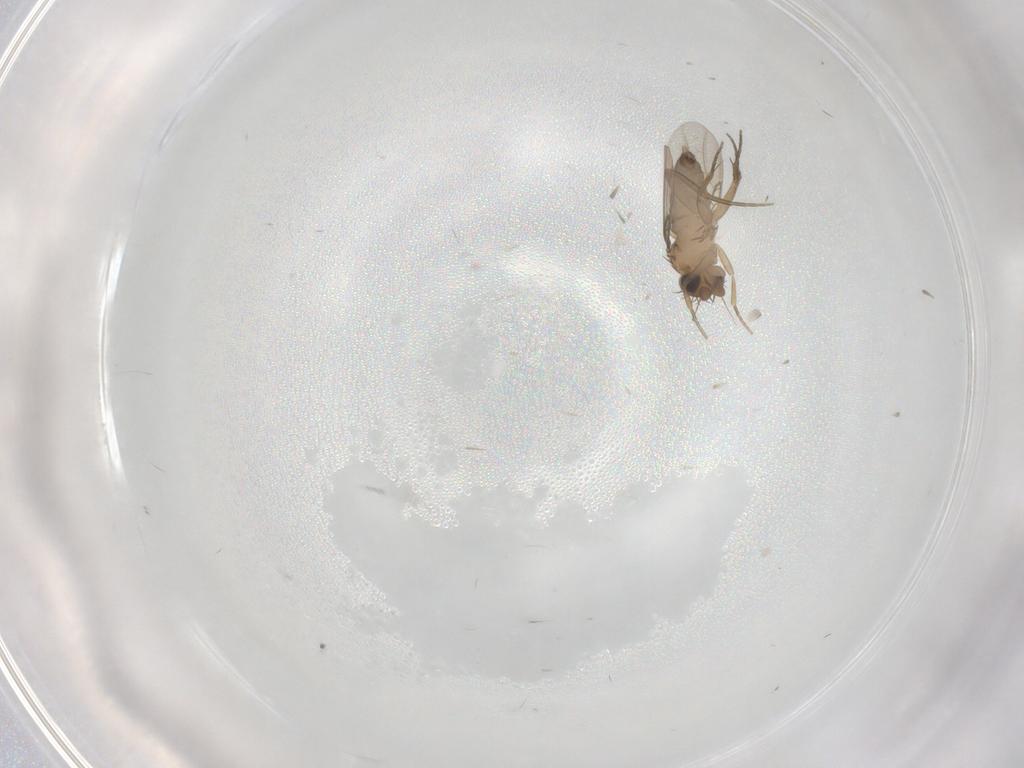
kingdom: Animalia
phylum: Arthropoda
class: Insecta
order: Diptera
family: Phoridae
